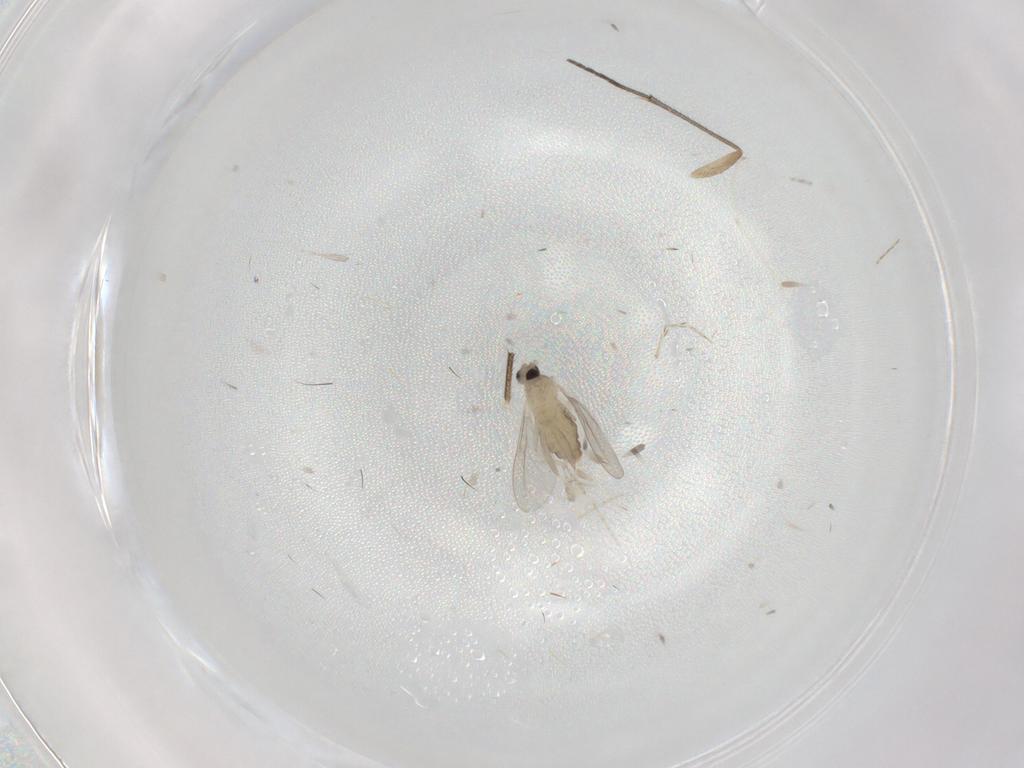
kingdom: Animalia
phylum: Arthropoda
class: Insecta
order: Diptera
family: Cecidomyiidae
